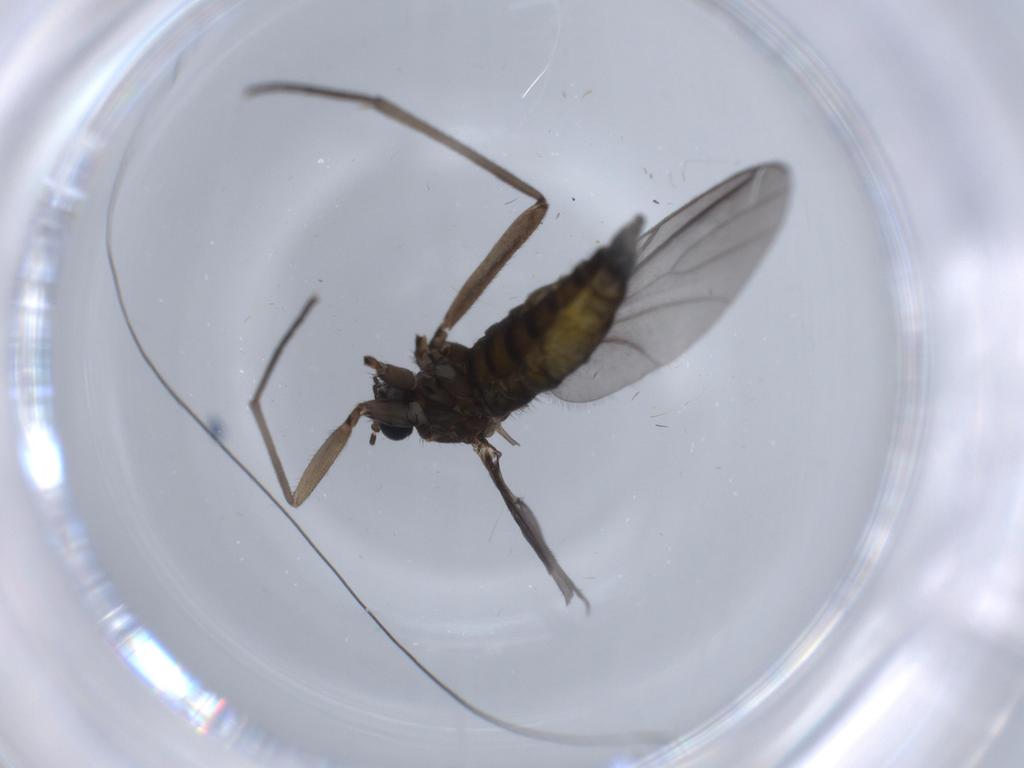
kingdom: Animalia
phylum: Arthropoda
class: Insecta
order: Diptera
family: Sciaridae
